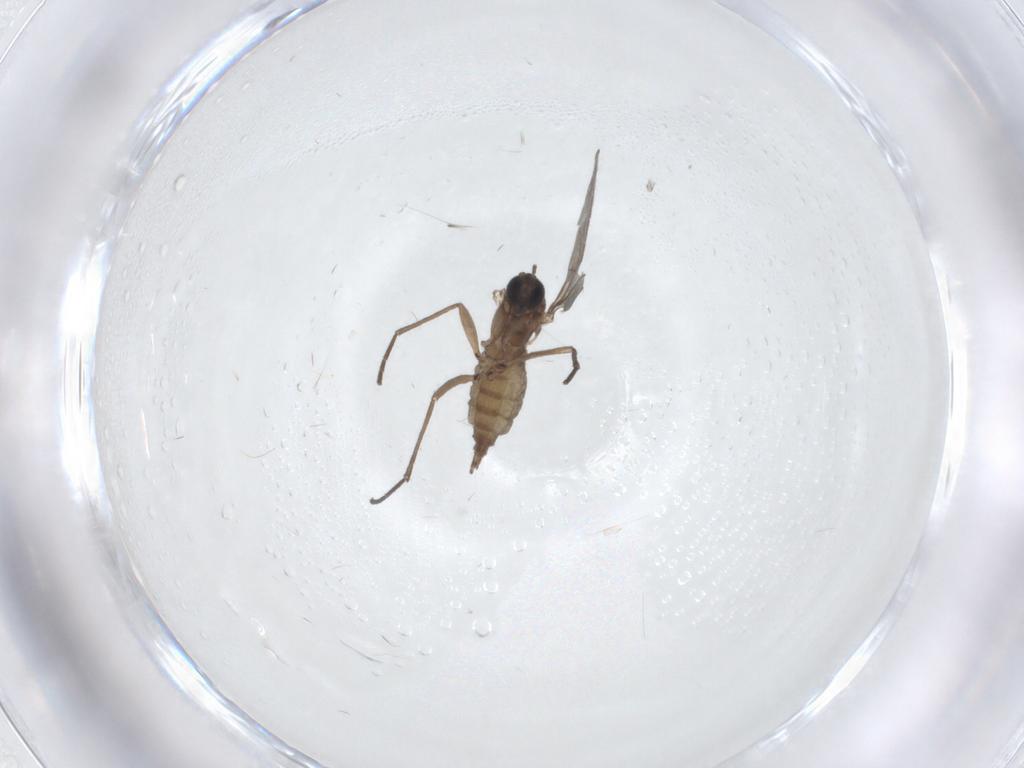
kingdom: Animalia
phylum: Arthropoda
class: Insecta
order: Diptera
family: Sciaridae
